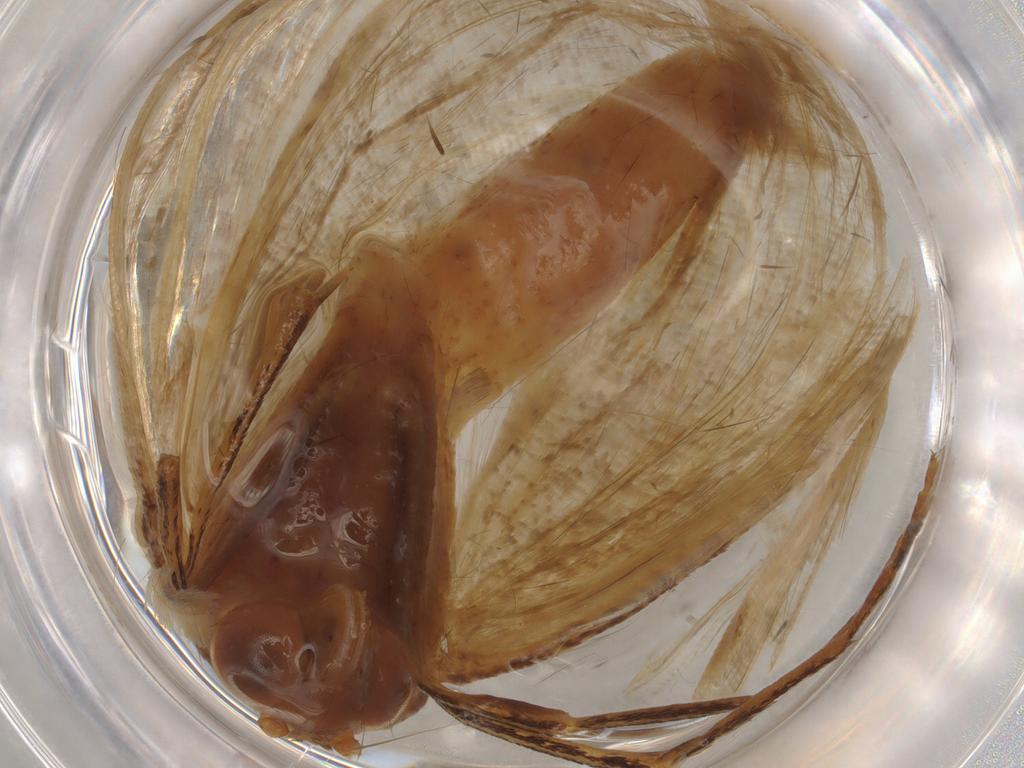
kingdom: Animalia
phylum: Arthropoda
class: Insecta
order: Lepidoptera
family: Geometridae
